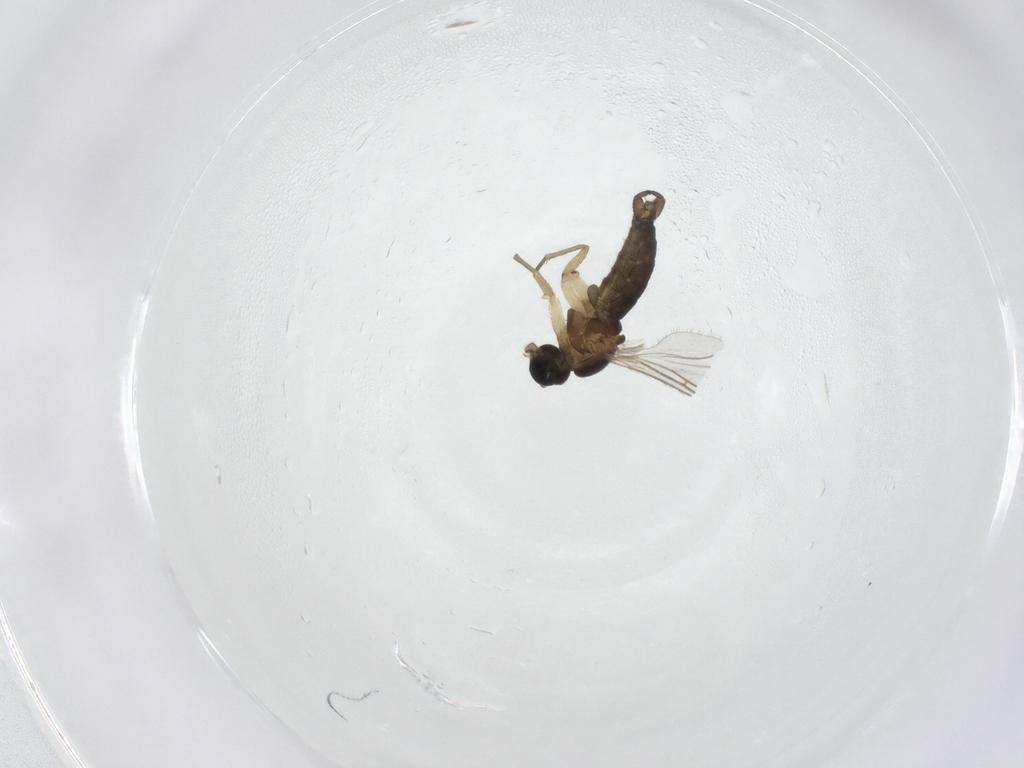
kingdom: Animalia
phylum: Arthropoda
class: Insecta
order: Diptera
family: Sciaridae
